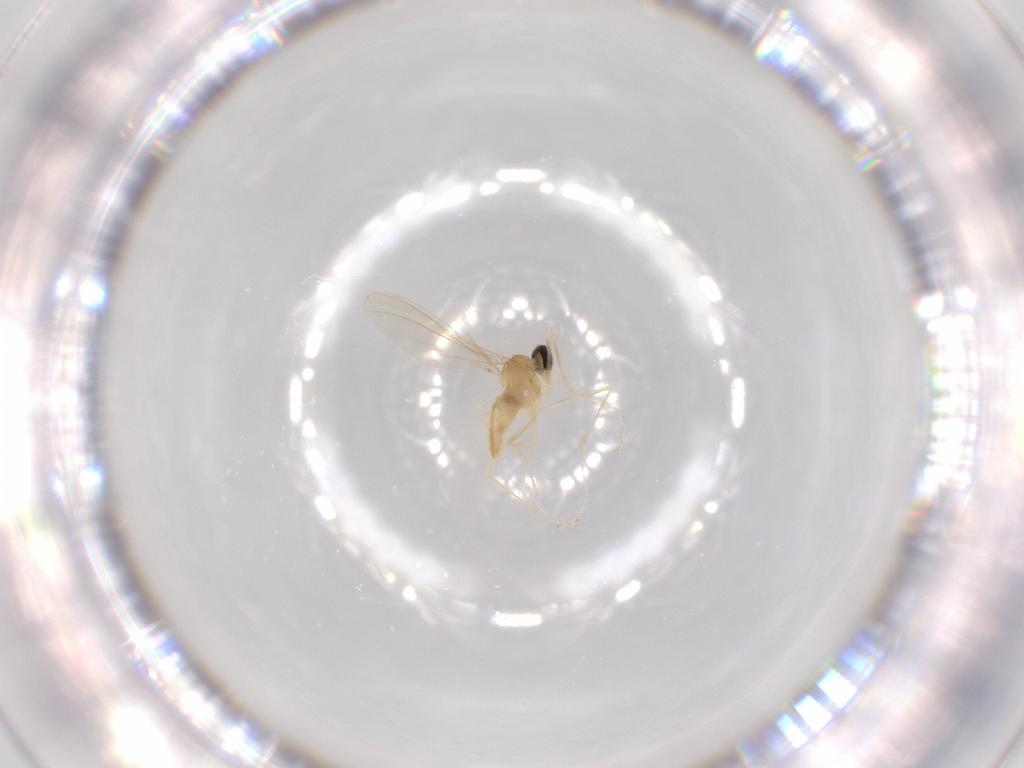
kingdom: Animalia
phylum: Arthropoda
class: Insecta
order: Diptera
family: Cecidomyiidae
